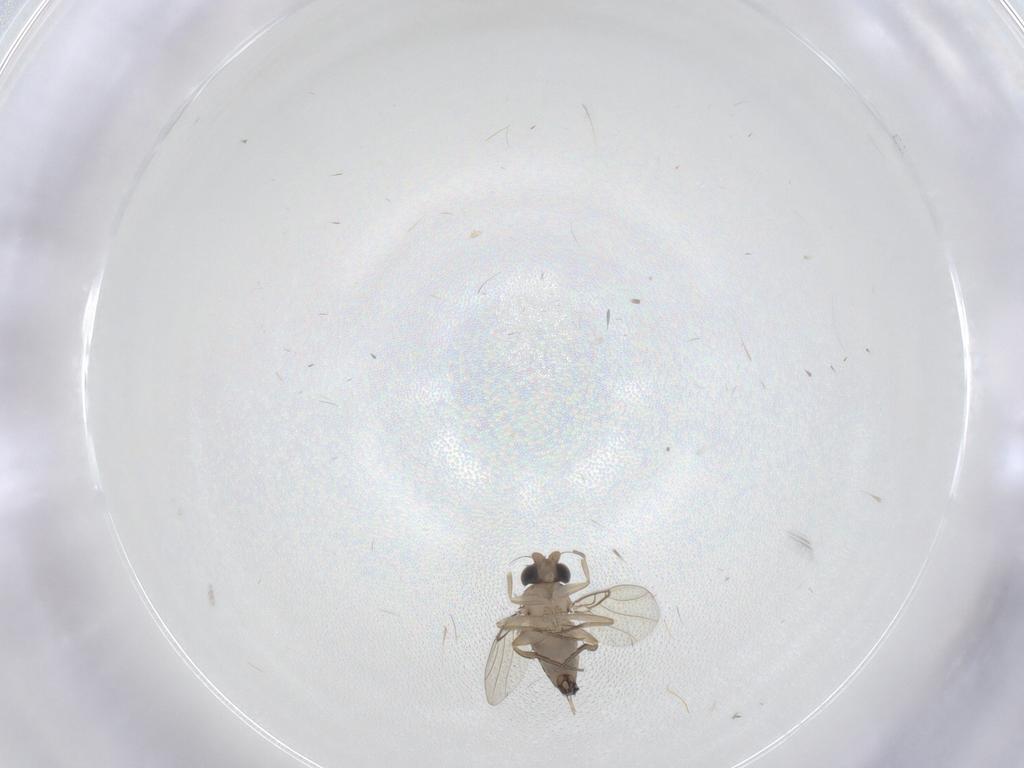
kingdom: Animalia
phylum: Arthropoda
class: Insecta
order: Diptera
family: Phoridae
